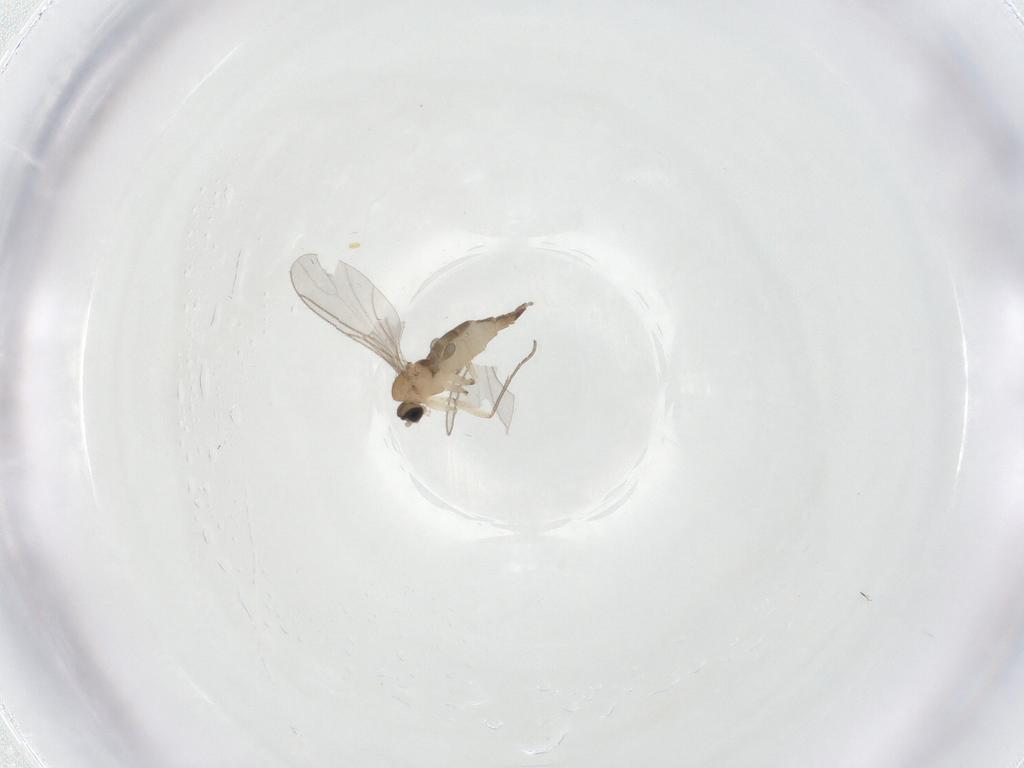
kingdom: Animalia
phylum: Arthropoda
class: Insecta
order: Diptera
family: Sciaridae
